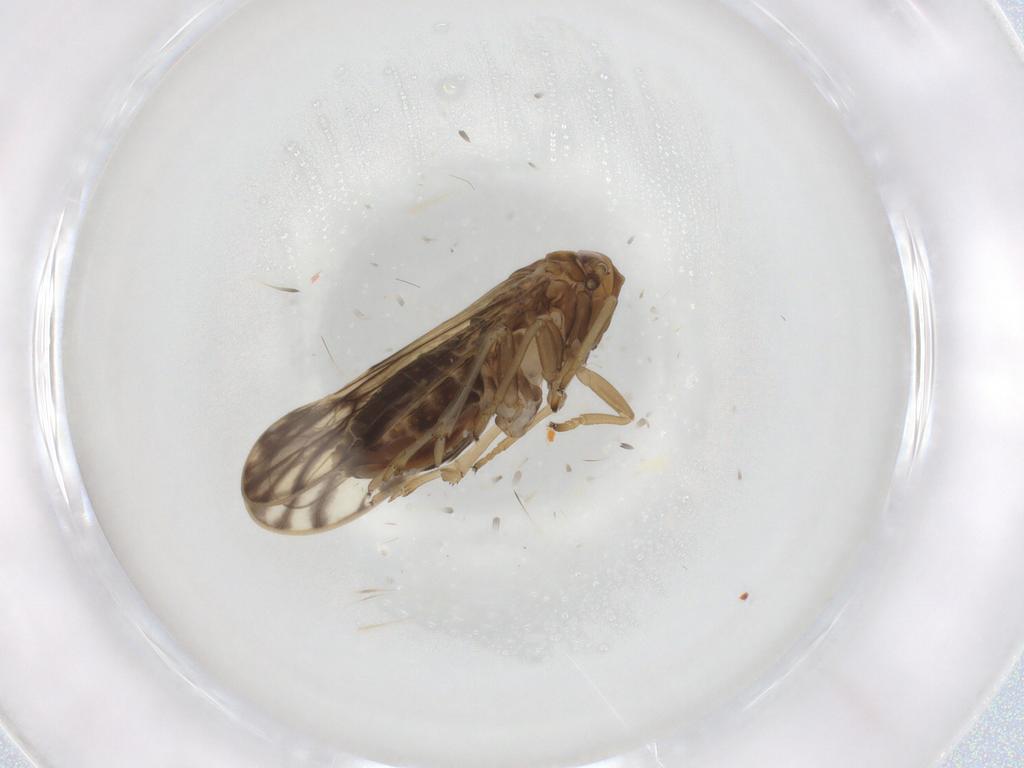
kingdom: Animalia
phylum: Arthropoda
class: Insecta
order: Hemiptera
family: Delphacidae
